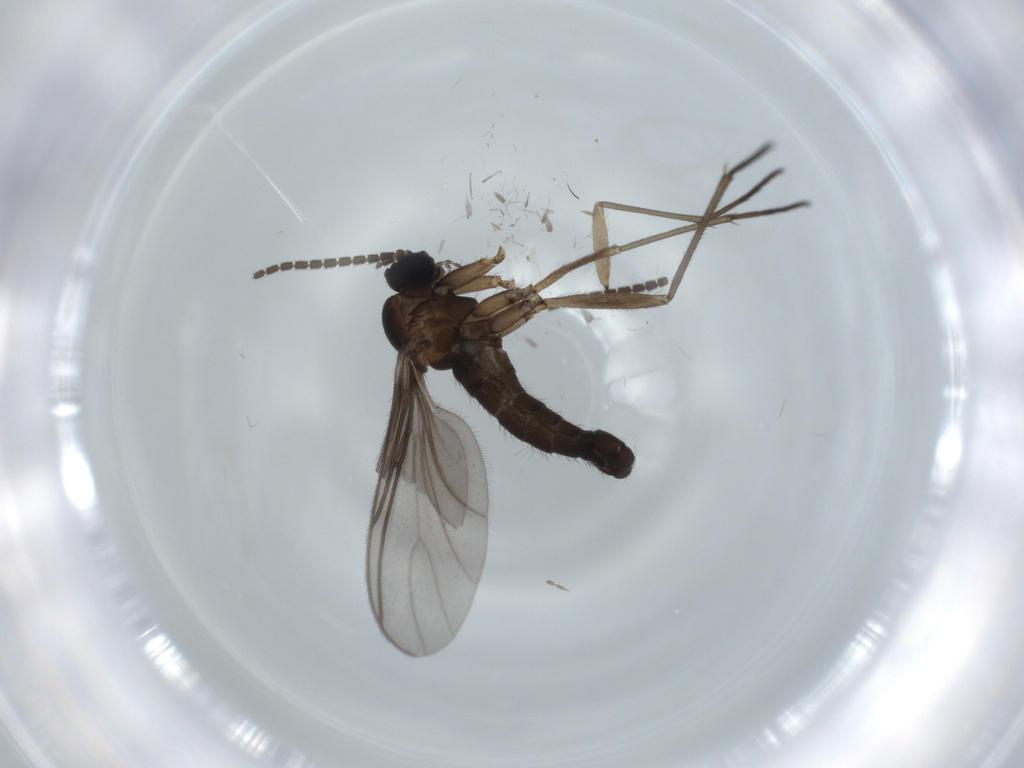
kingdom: Animalia
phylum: Arthropoda
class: Insecta
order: Diptera
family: Sciaridae
